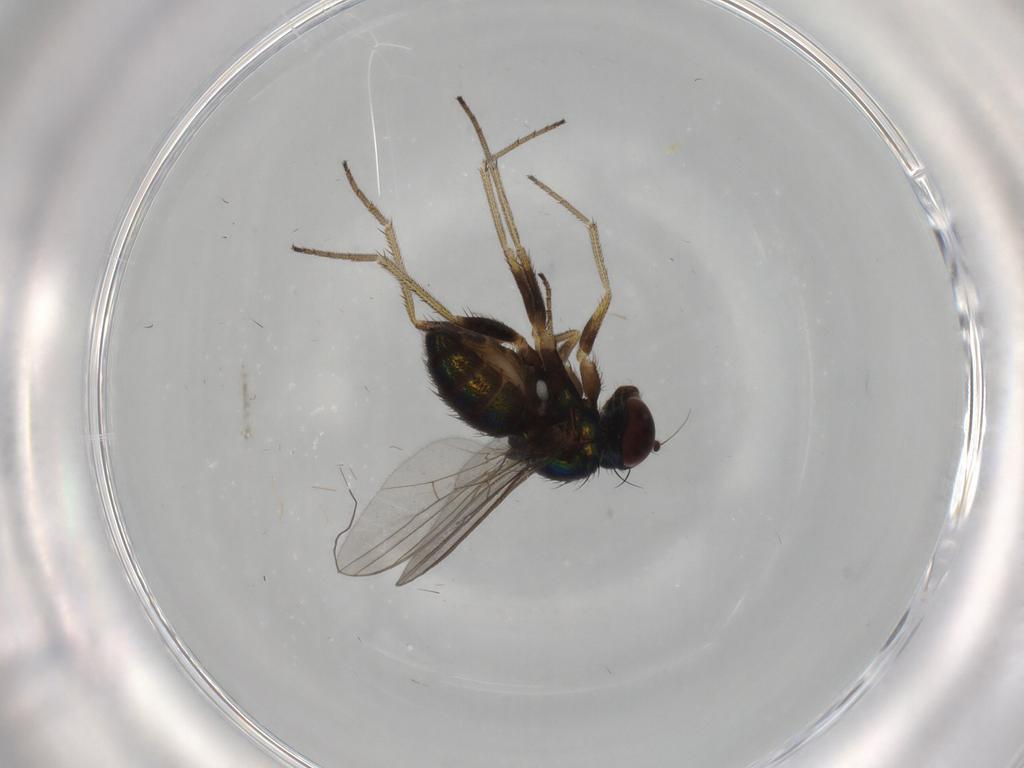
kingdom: Animalia
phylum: Arthropoda
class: Insecta
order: Diptera
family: Dolichopodidae
